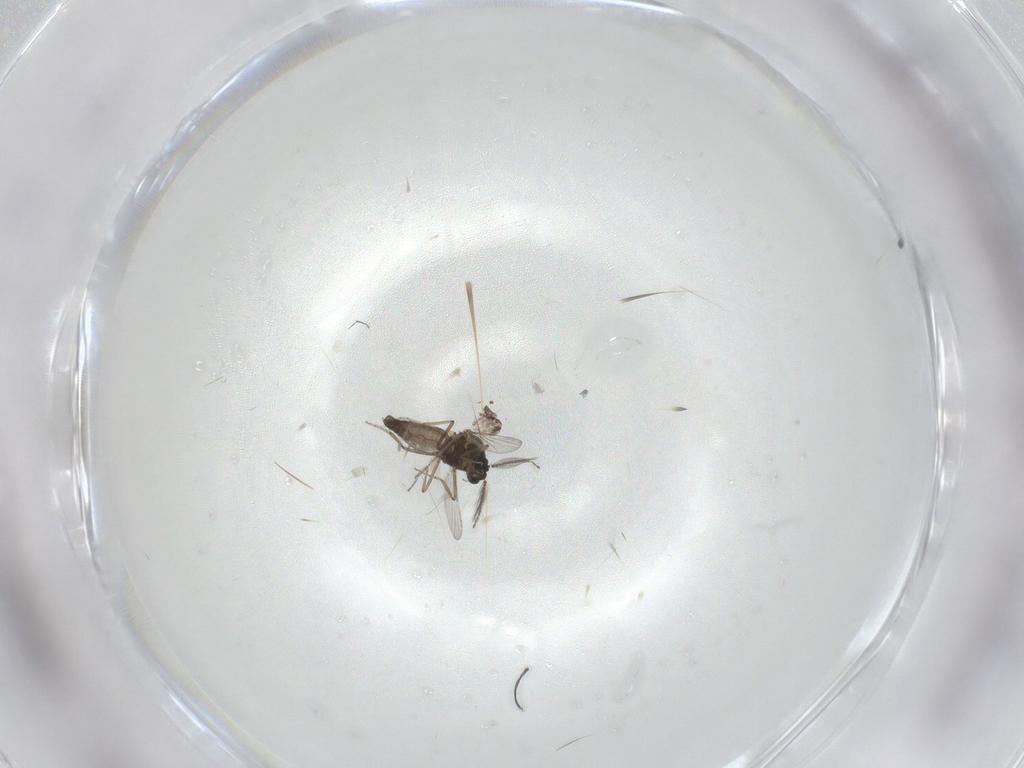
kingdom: Animalia
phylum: Arthropoda
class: Insecta
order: Diptera
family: Ceratopogonidae
